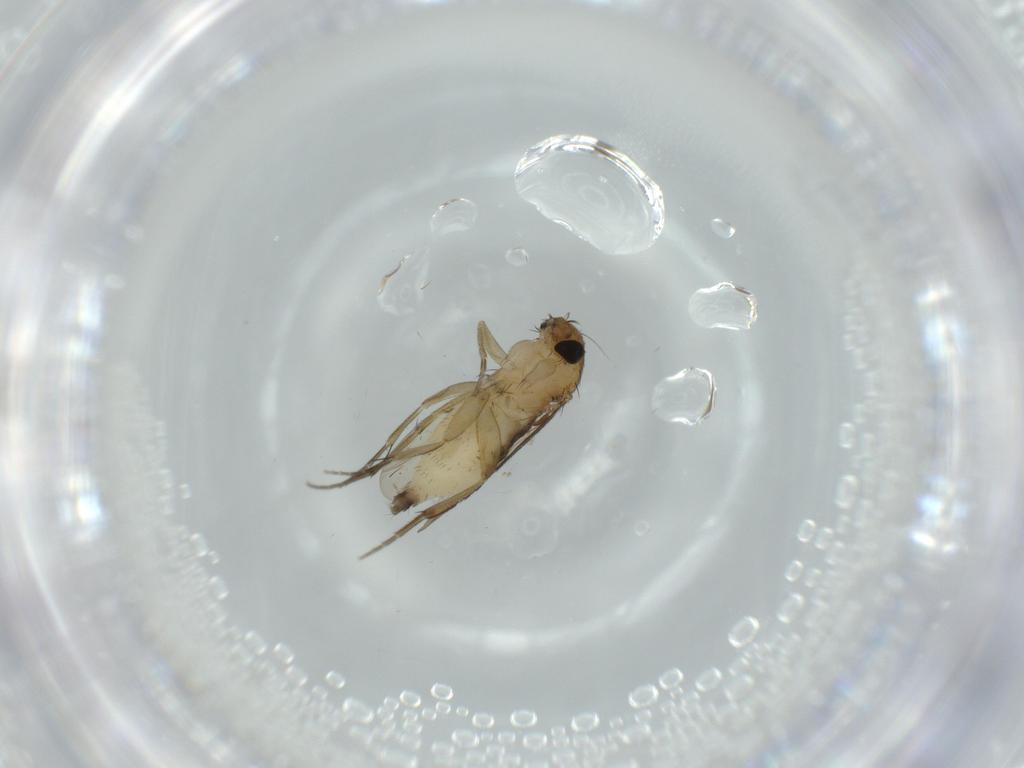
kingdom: Animalia
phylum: Arthropoda
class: Insecta
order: Diptera
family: Phoridae
